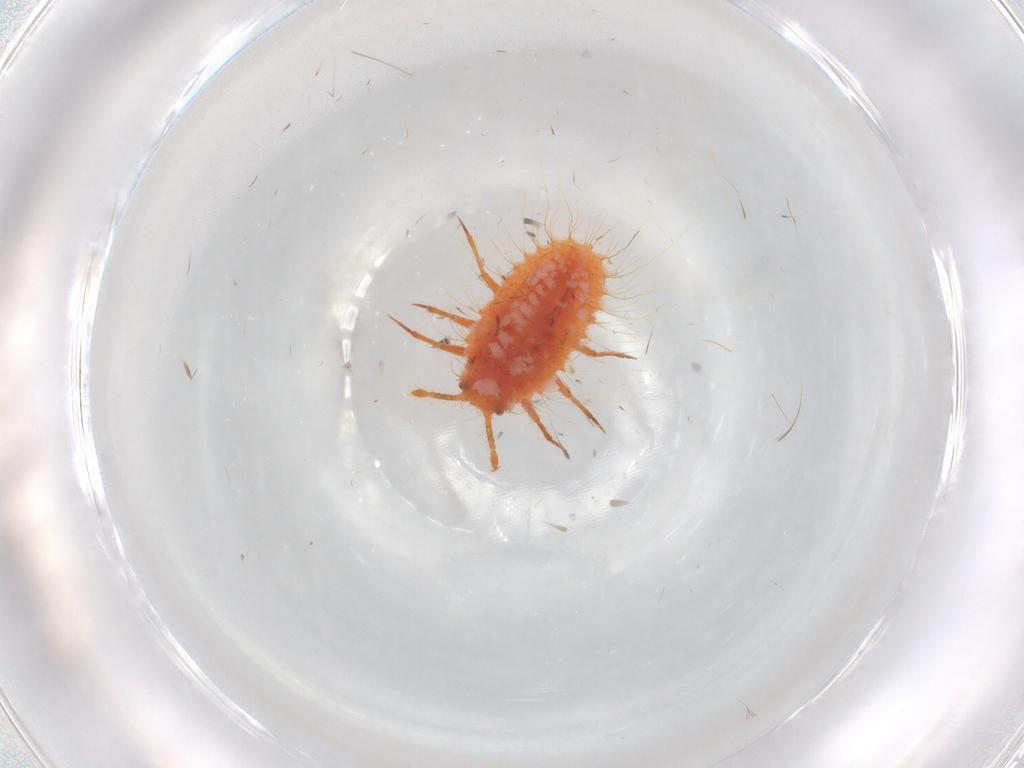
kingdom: Animalia
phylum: Arthropoda
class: Insecta
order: Hemiptera
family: Coccoidea_incertae_sedis
